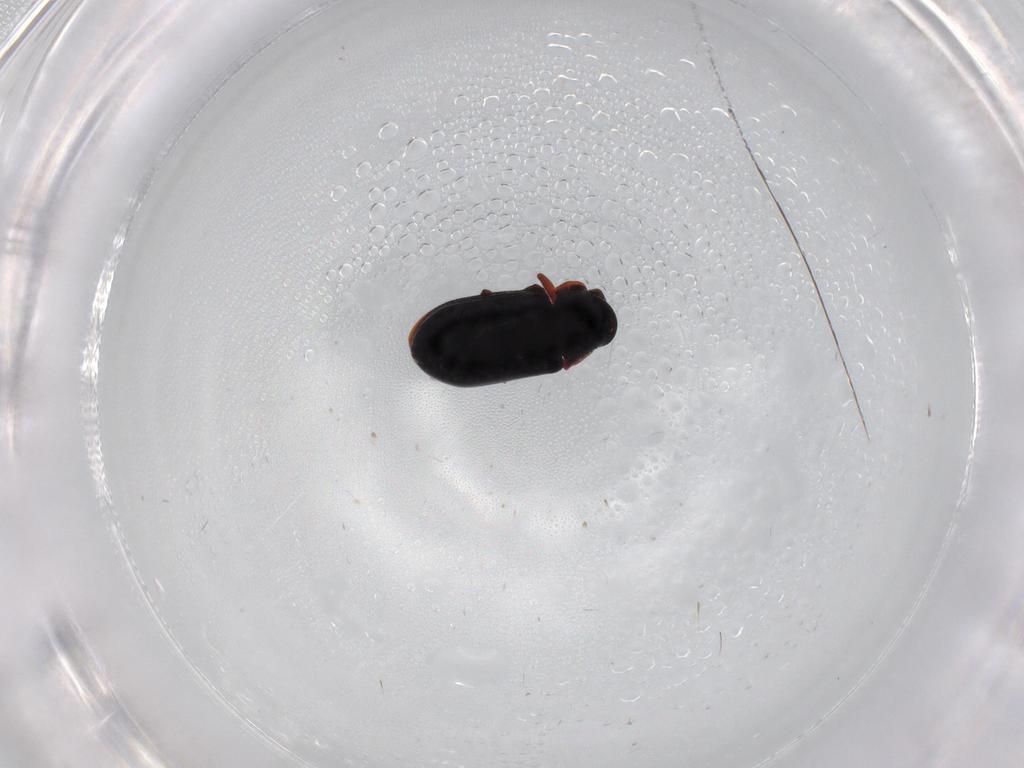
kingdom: Animalia
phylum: Arthropoda
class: Insecta
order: Coleoptera
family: Ptinidae
